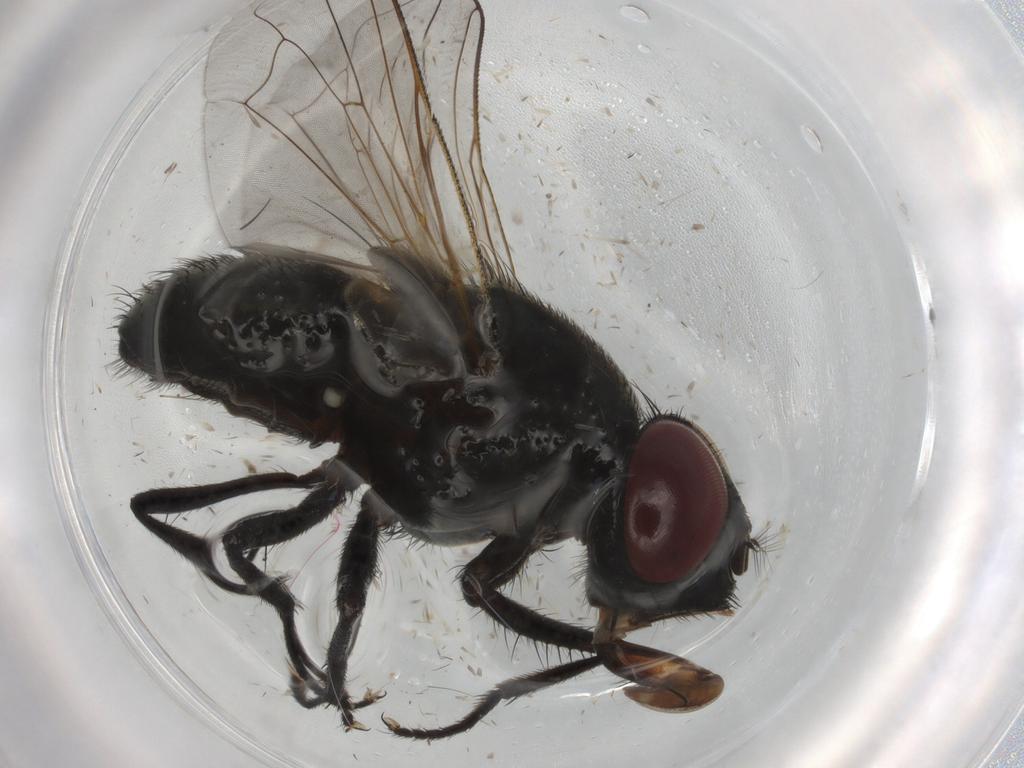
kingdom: Animalia
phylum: Arthropoda
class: Insecta
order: Diptera
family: Muscidae
